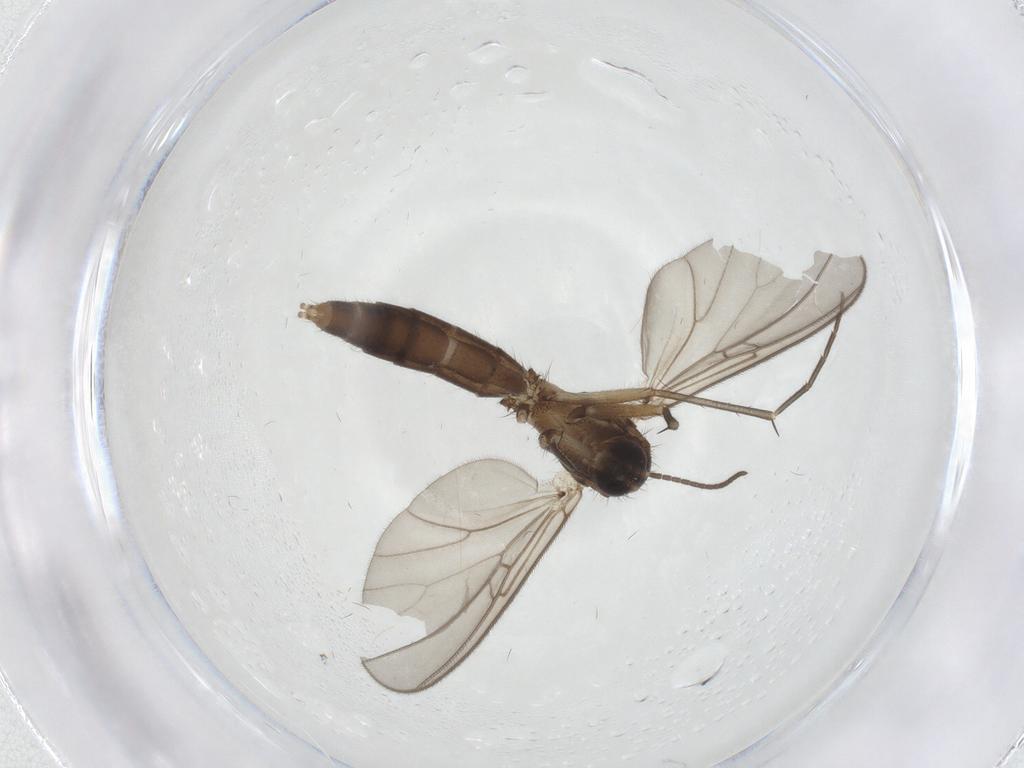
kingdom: Animalia
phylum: Arthropoda
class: Insecta
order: Diptera
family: Mycetophilidae
